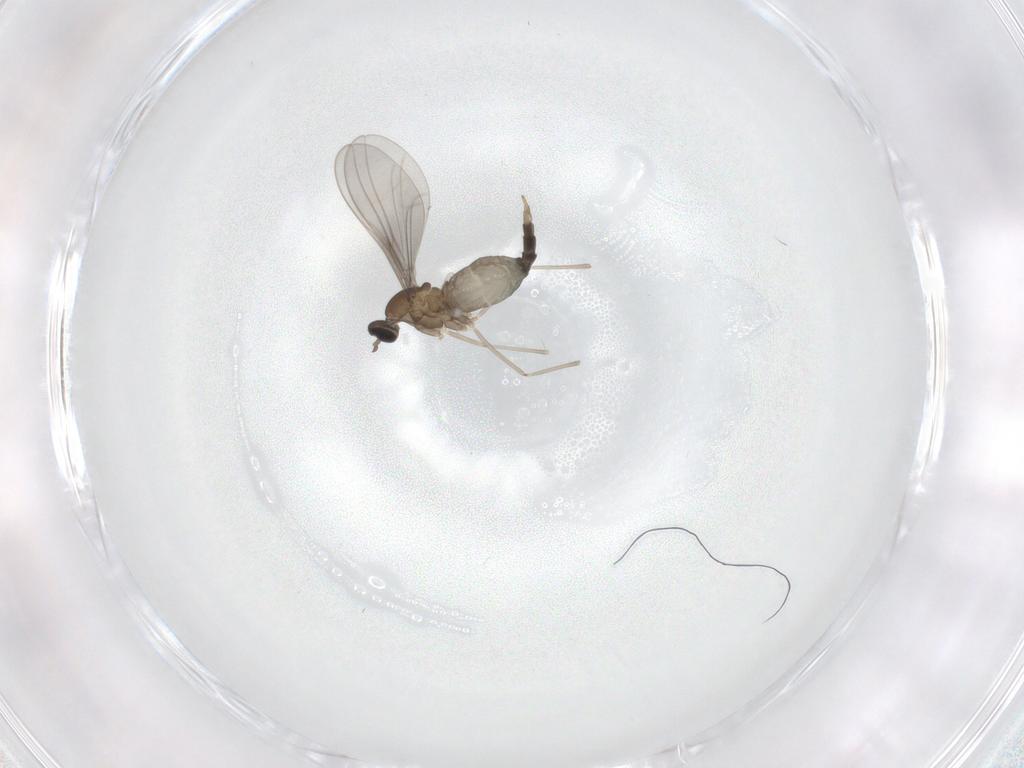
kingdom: Animalia
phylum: Arthropoda
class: Insecta
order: Diptera
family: Cecidomyiidae
